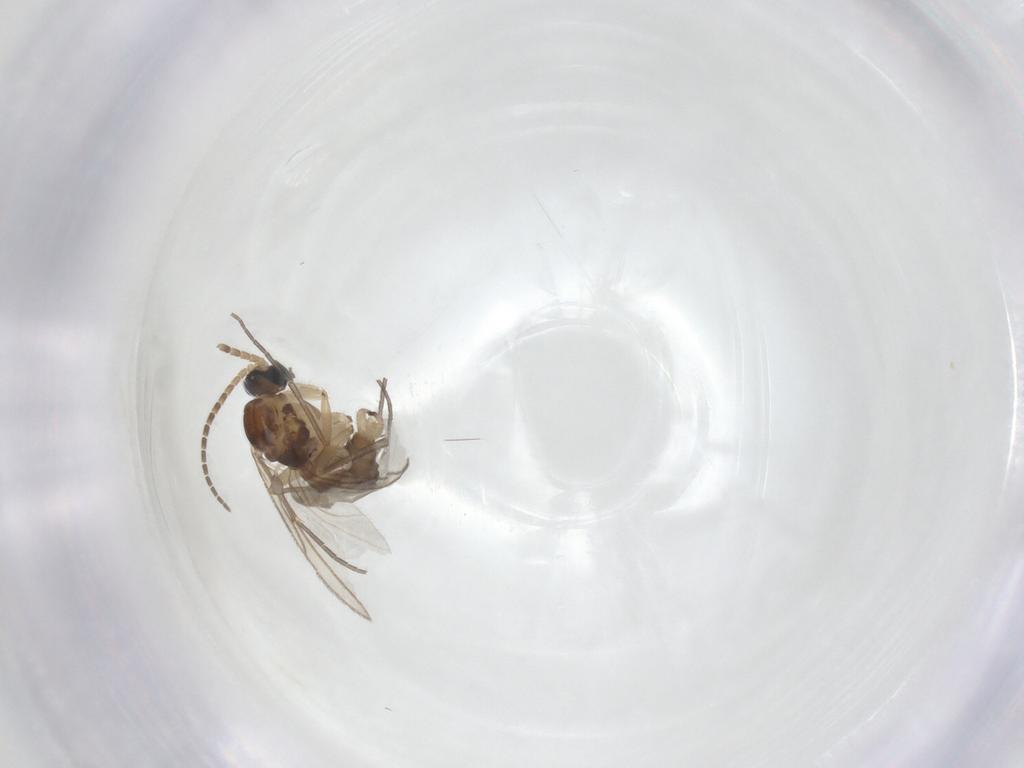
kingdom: Animalia
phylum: Arthropoda
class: Insecta
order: Diptera
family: Sciaridae
